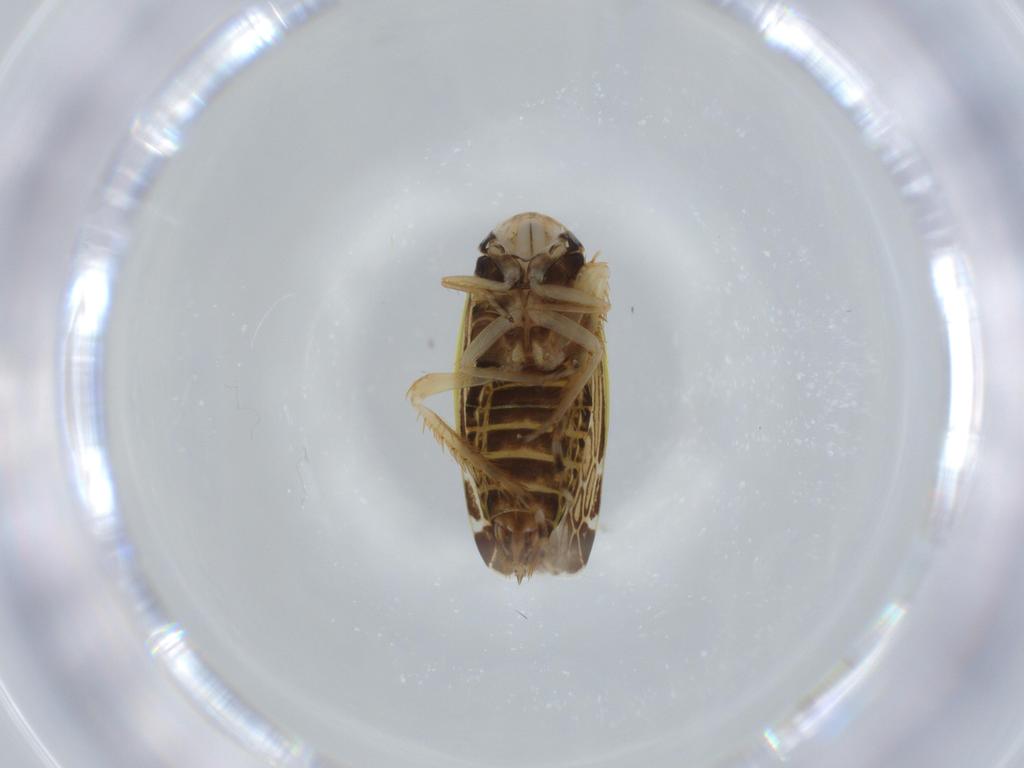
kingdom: Animalia
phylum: Arthropoda
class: Insecta
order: Hemiptera
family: Cicadellidae
